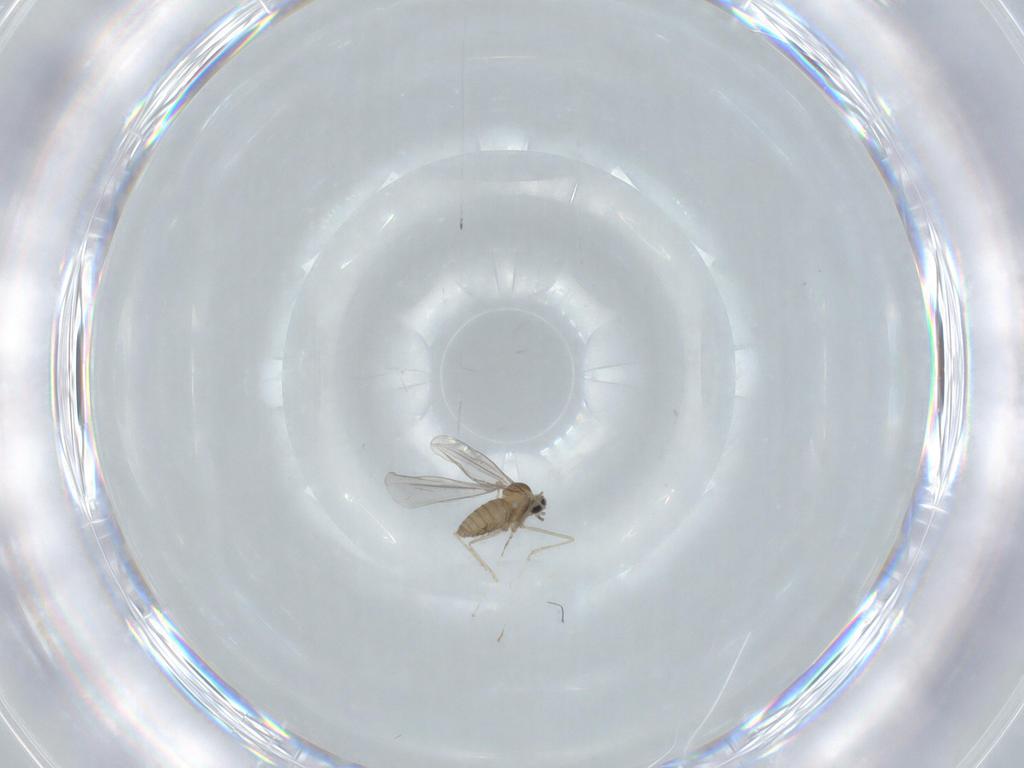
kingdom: Animalia
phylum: Arthropoda
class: Insecta
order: Diptera
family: Cecidomyiidae
